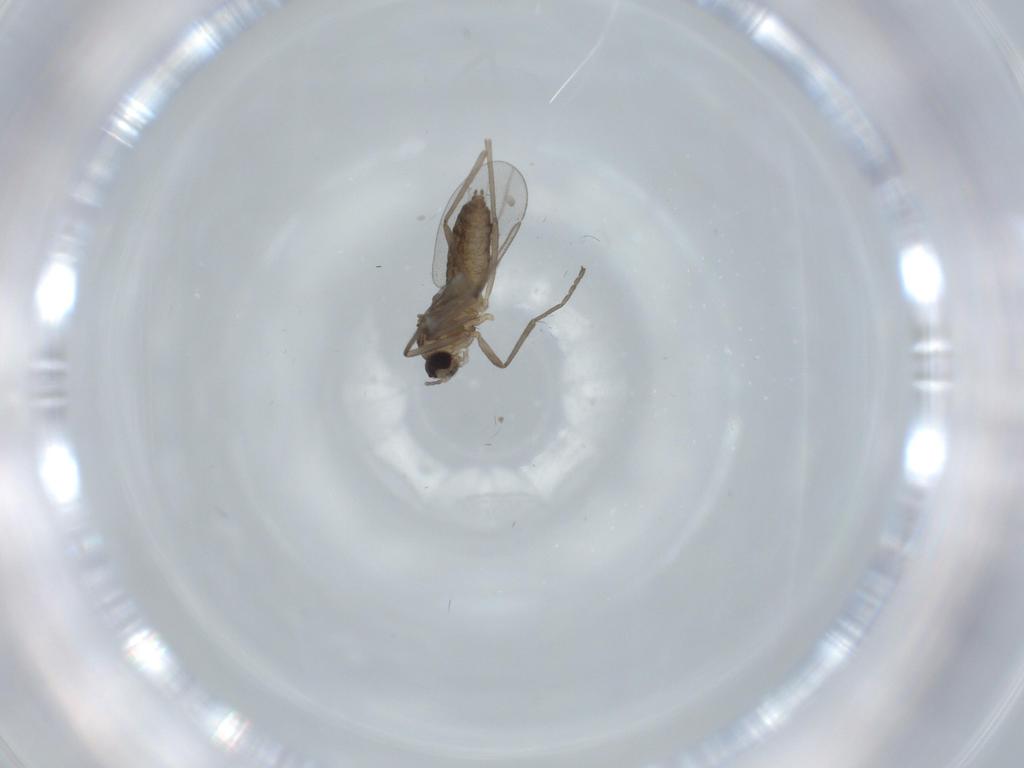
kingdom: Animalia
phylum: Arthropoda
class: Insecta
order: Diptera
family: Cecidomyiidae
